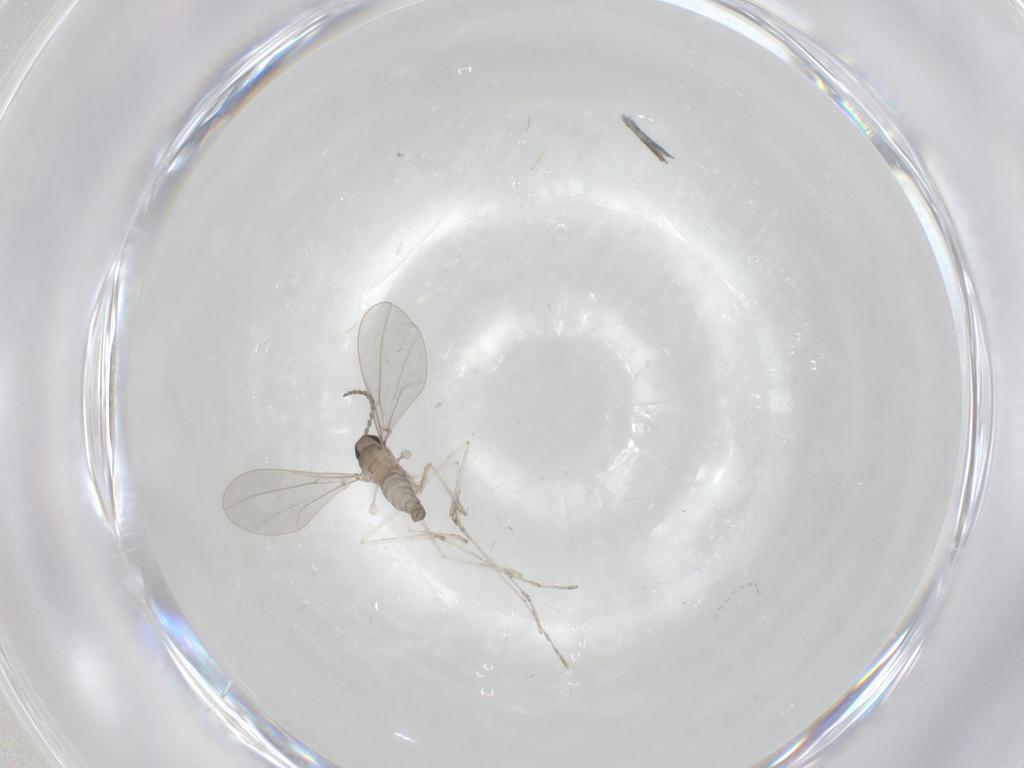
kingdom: Animalia
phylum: Arthropoda
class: Insecta
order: Diptera
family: Cecidomyiidae
